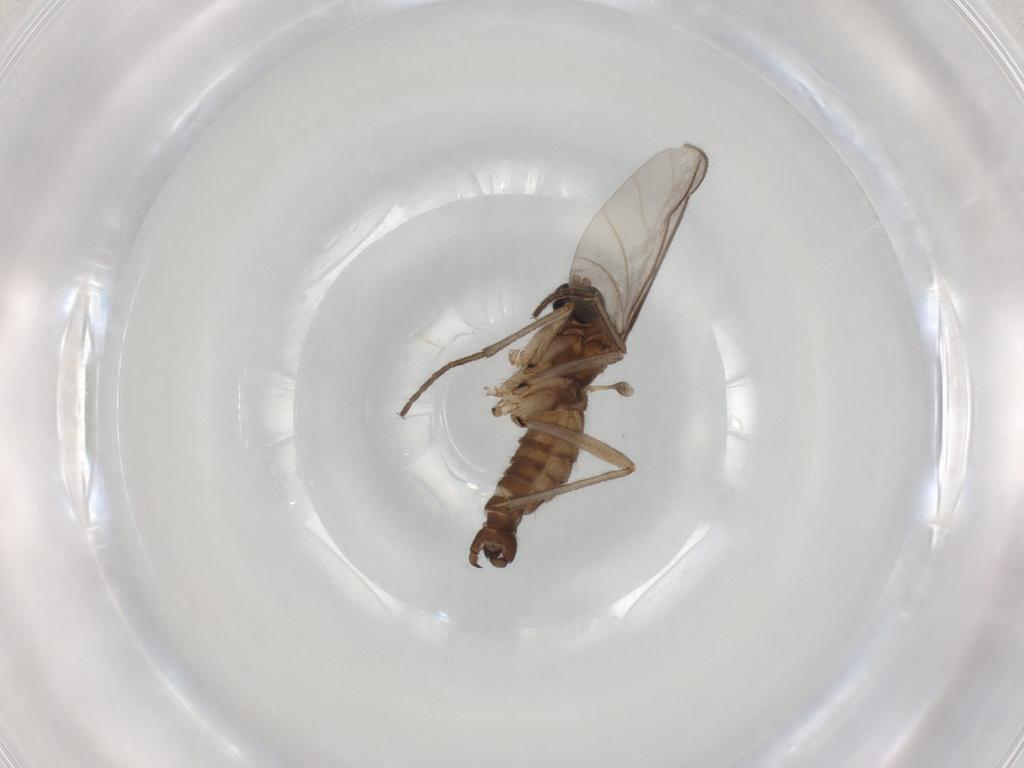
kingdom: Animalia
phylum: Arthropoda
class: Insecta
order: Diptera
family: Sciaridae
